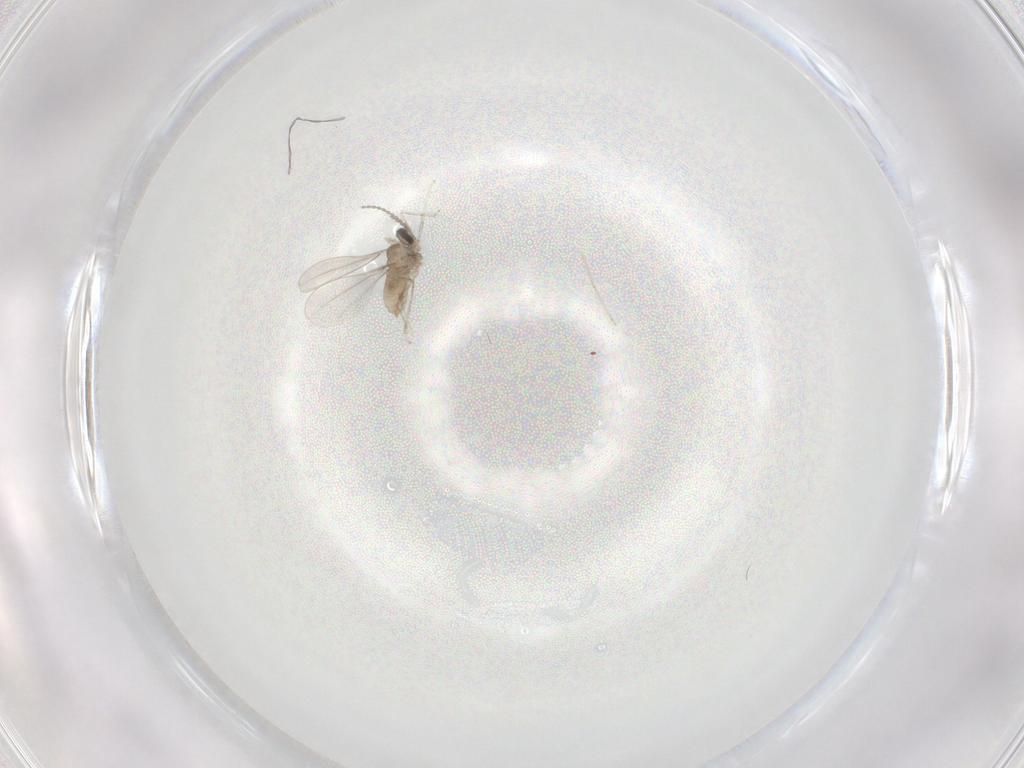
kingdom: Animalia
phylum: Arthropoda
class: Insecta
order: Diptera
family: Cecidomyiidae
